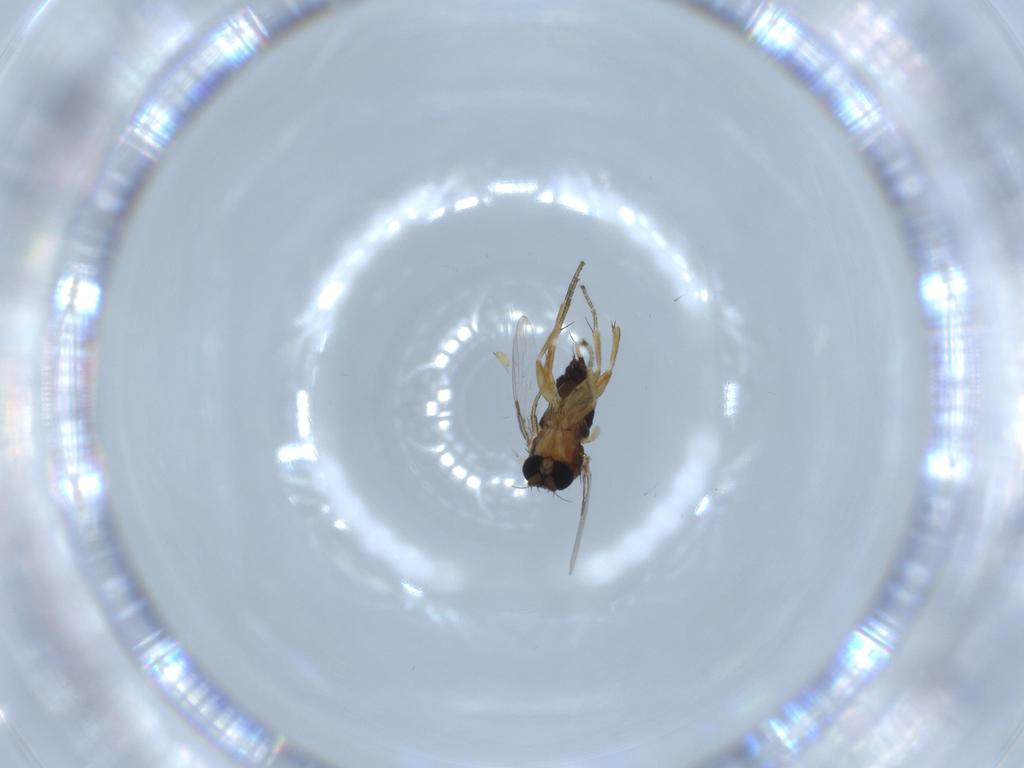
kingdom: Animalia
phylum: Arthropoda
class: Insecta
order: Diptera
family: Phoridae
